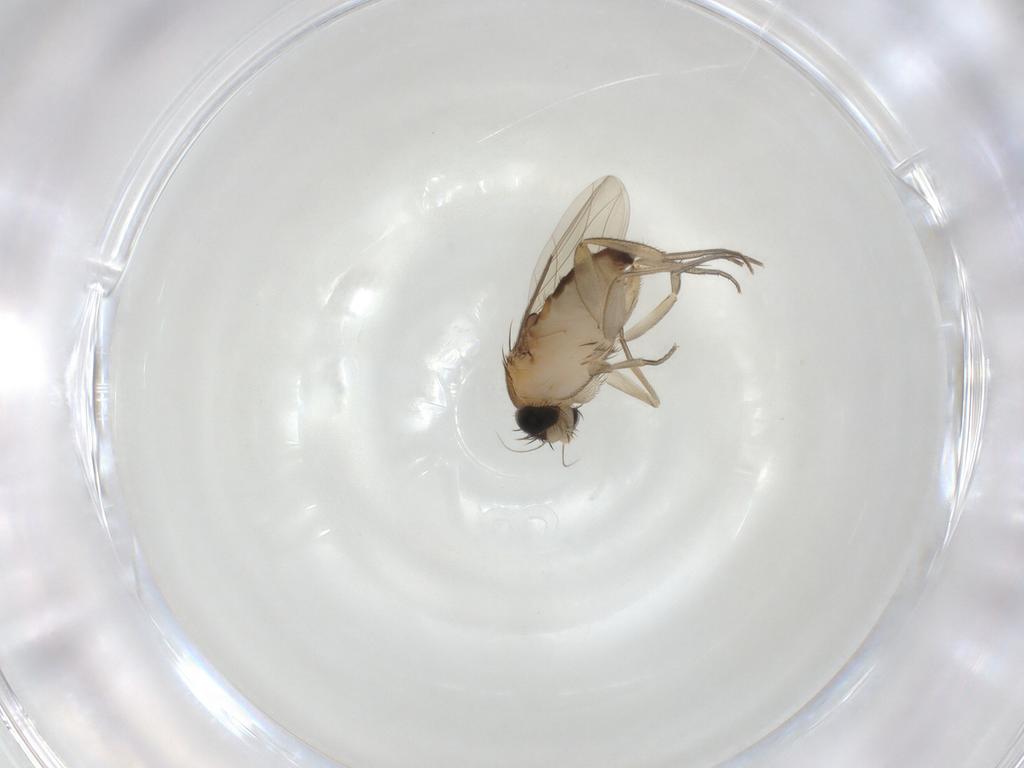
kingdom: Animalia
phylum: Arthropoda
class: Insecta
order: Diptera
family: Phoridae
